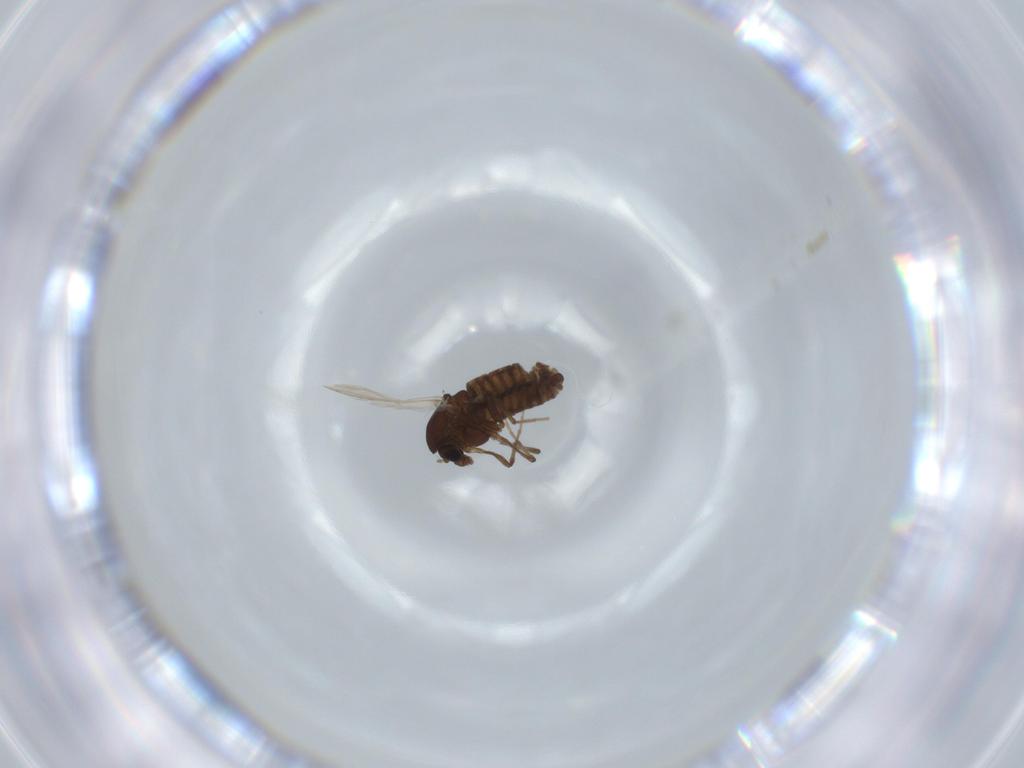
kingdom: Animalia
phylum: Arthropoda
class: Insecta
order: Diptera
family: Chironomidae
